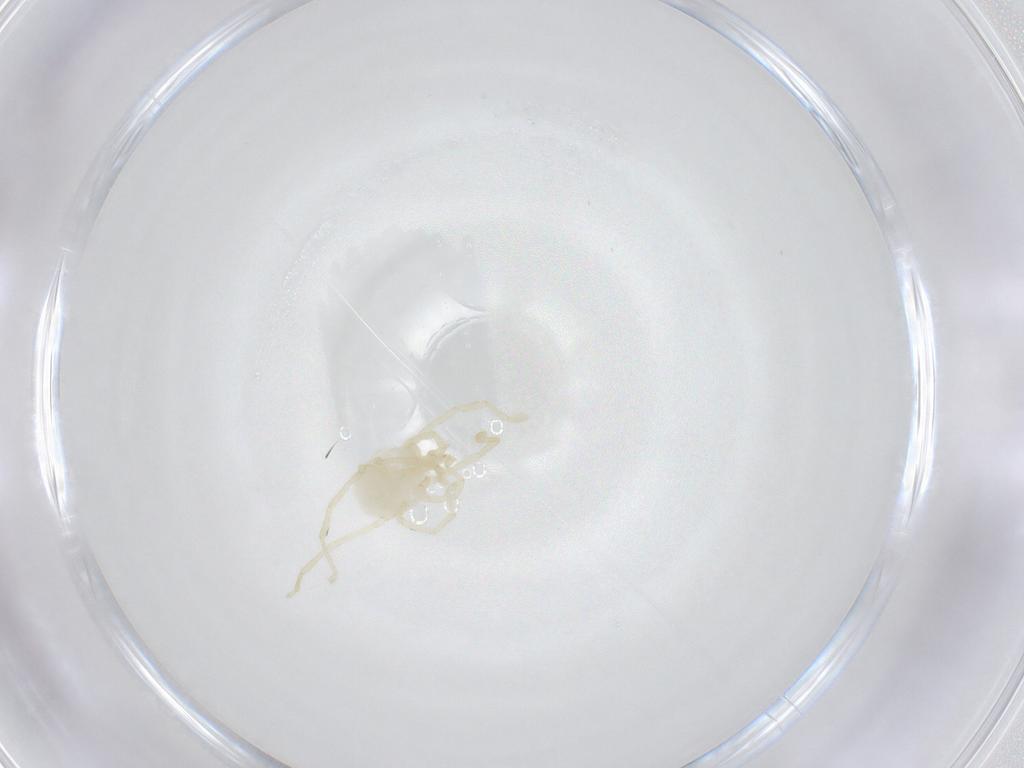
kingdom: Animalia
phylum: Arthropoda
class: Arachnida
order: Trombidiformes
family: Erythraeidae
